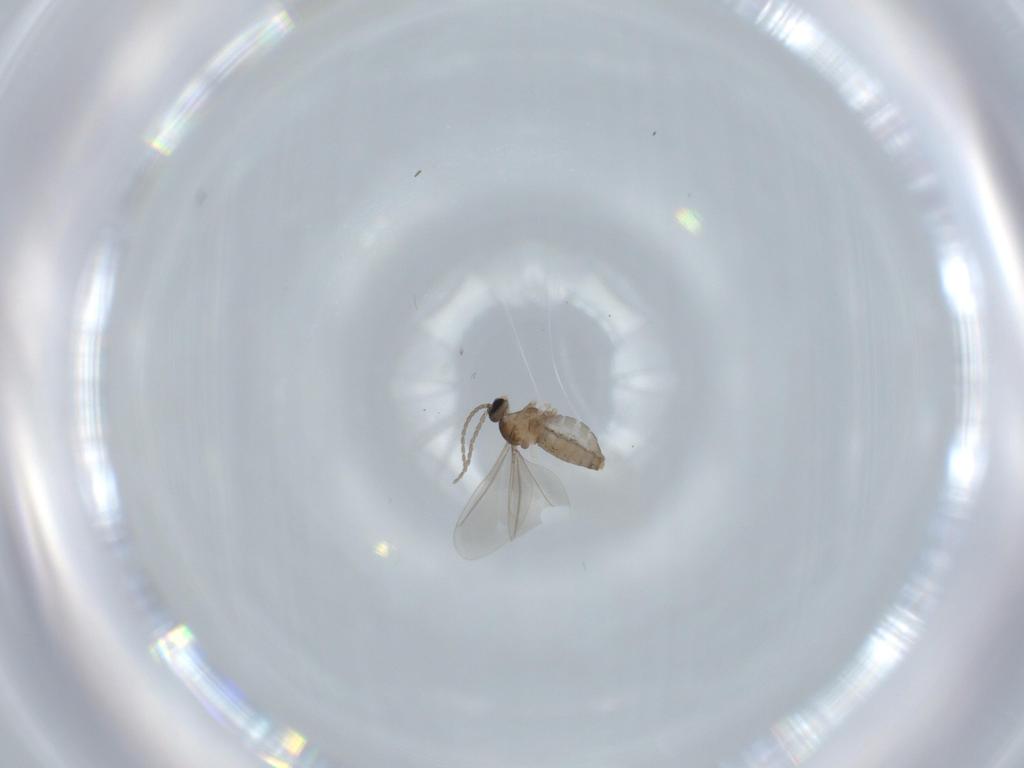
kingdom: Animalia
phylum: Arthropoda
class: Insecta
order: Diptera
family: Cecidomyiidae
